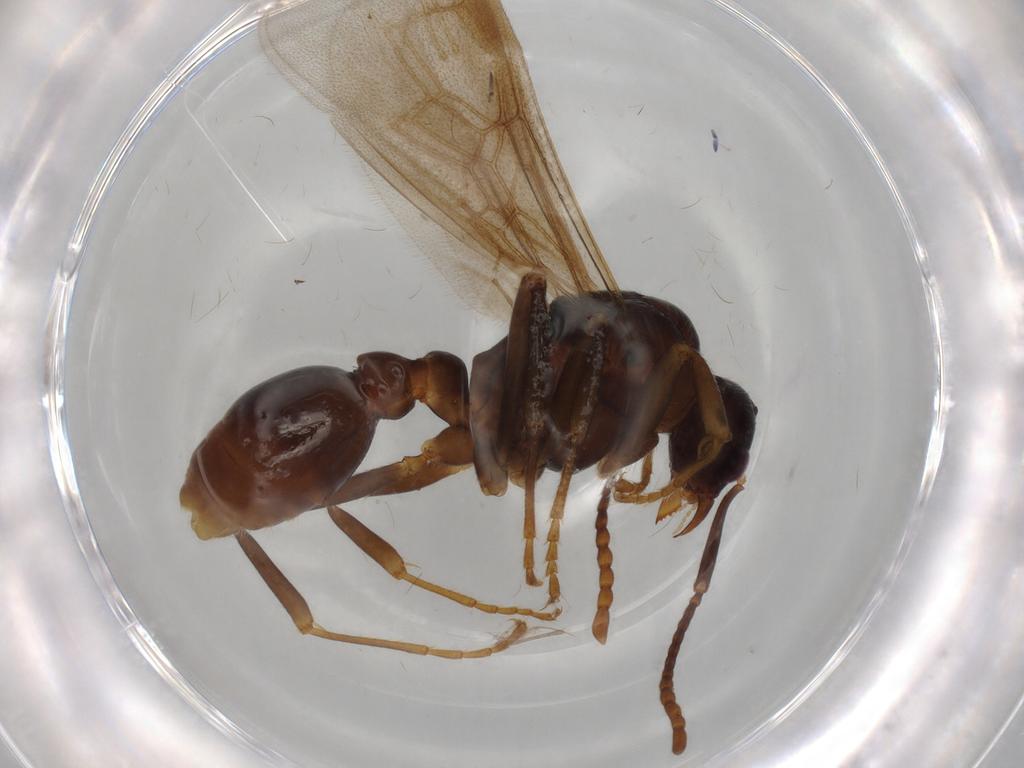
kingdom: Animalia
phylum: Arthropoda
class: Insecta
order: Hymenoptera
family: Formicidae
